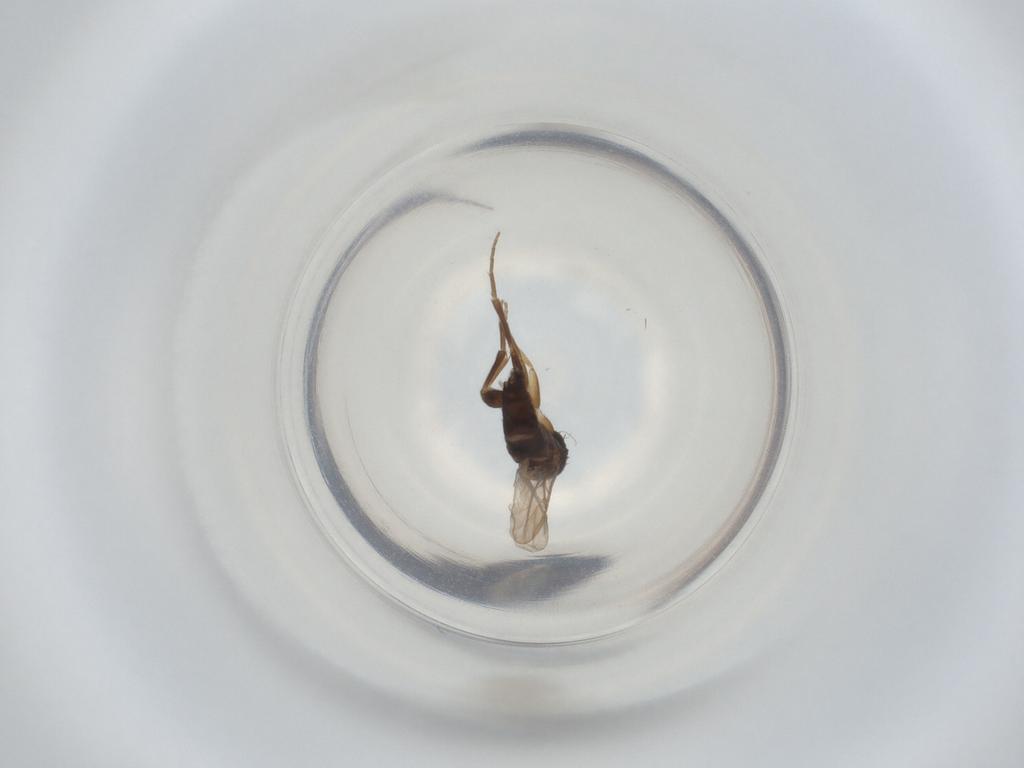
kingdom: Animalia
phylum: Arthropoda
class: Insecta
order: Diptera
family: Phoridae
